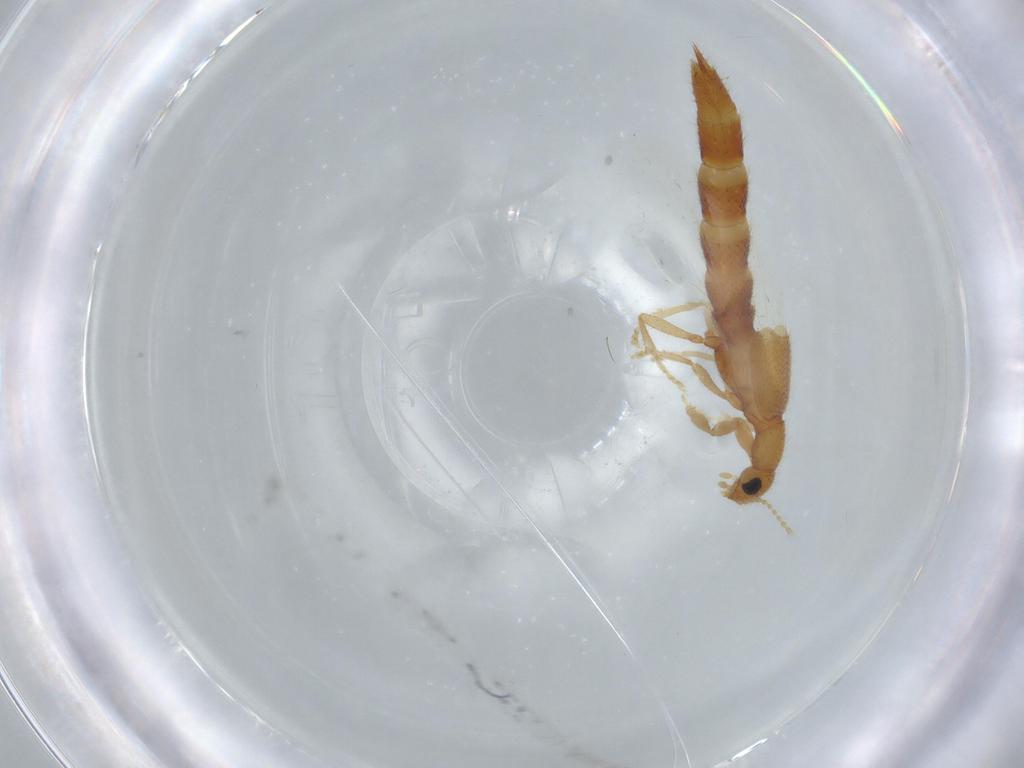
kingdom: Animalia
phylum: Arthropoda
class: Insecta
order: Coleoptera
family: Staphylinidae
